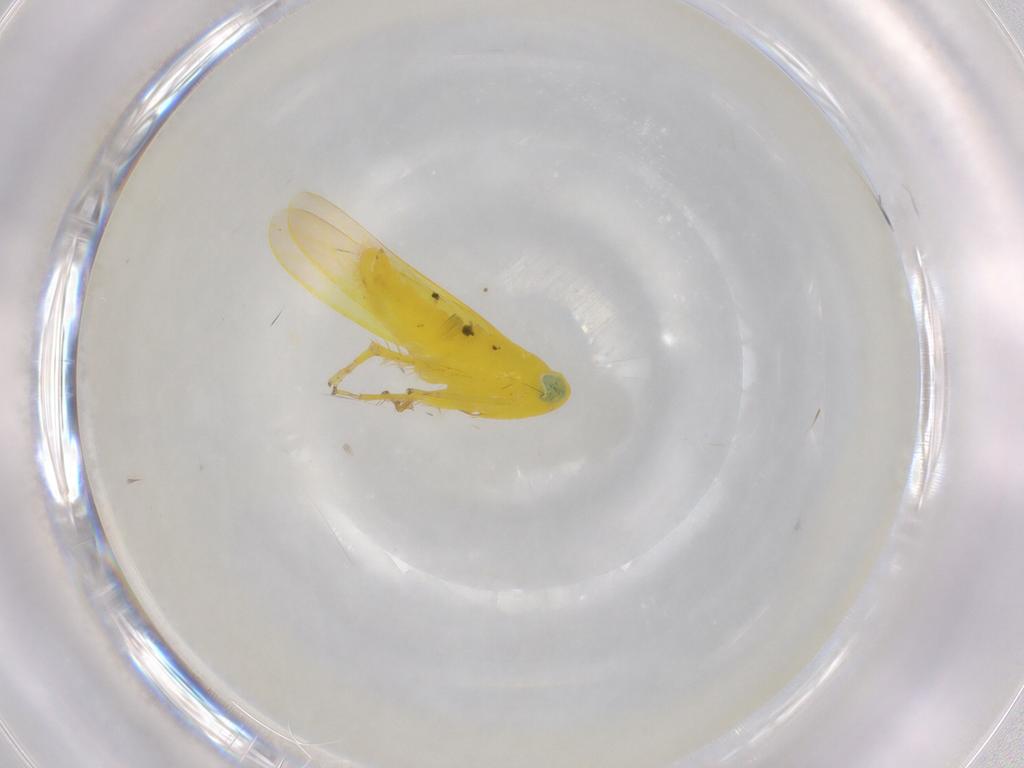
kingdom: Animalia
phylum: Arthropoda
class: Insecta
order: Hemiptera
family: Cicadellidae
